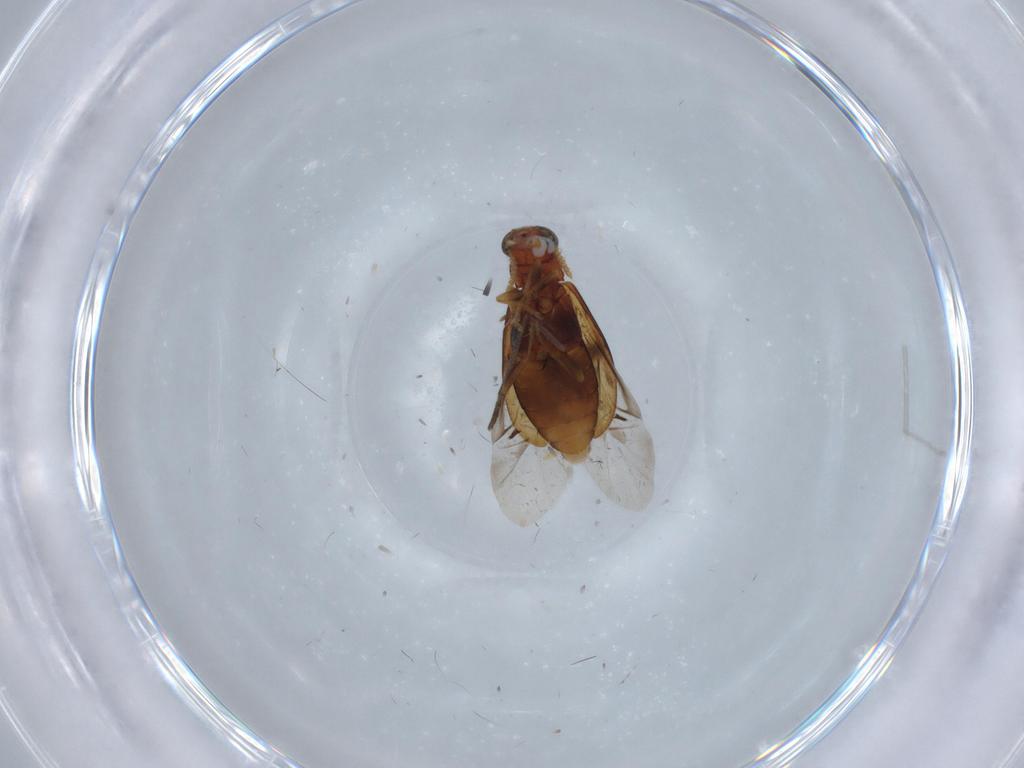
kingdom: Animalia
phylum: Arthropoda
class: Insecta
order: Coleoptera
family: Mycteridae
